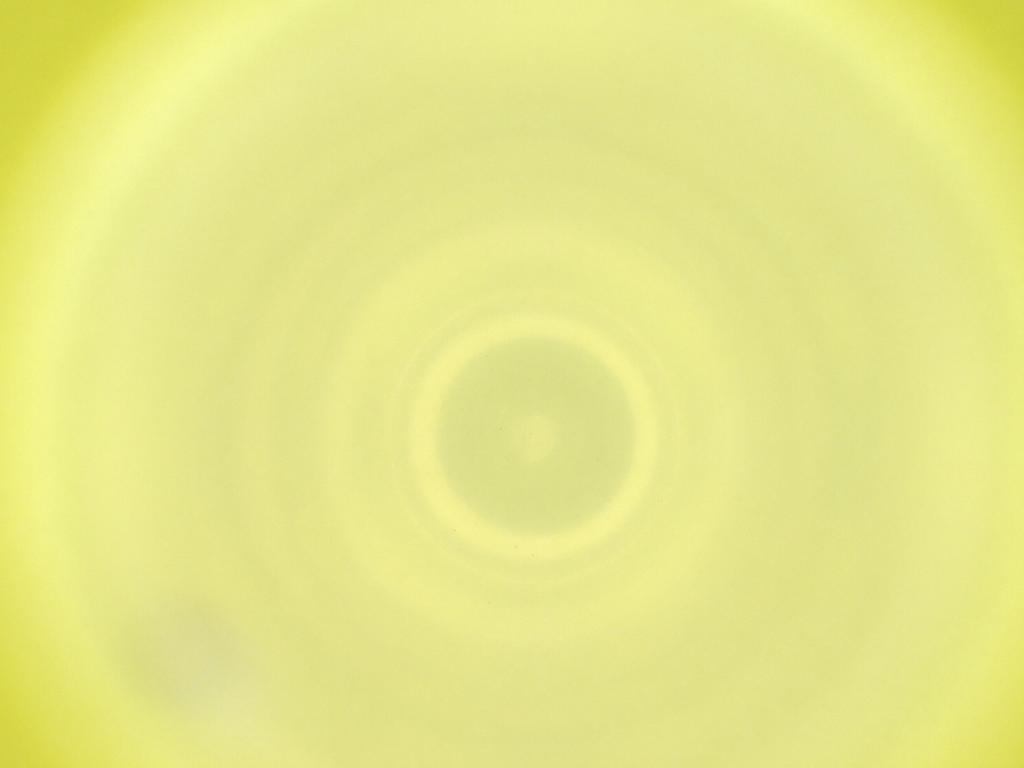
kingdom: Animalia
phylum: Arthropoda
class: Insecta
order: Diptera
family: Cecidomyiidae
